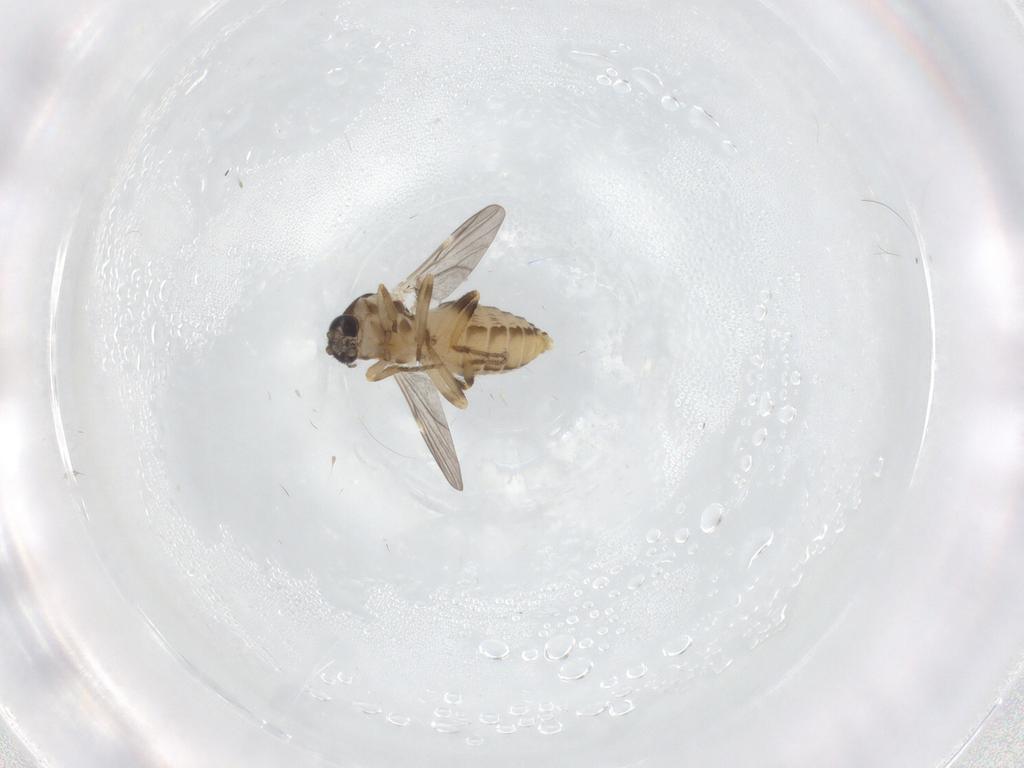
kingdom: Animalia
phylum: Arthropoda
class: Insecta
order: Diptera
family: Ceratopogonidae
